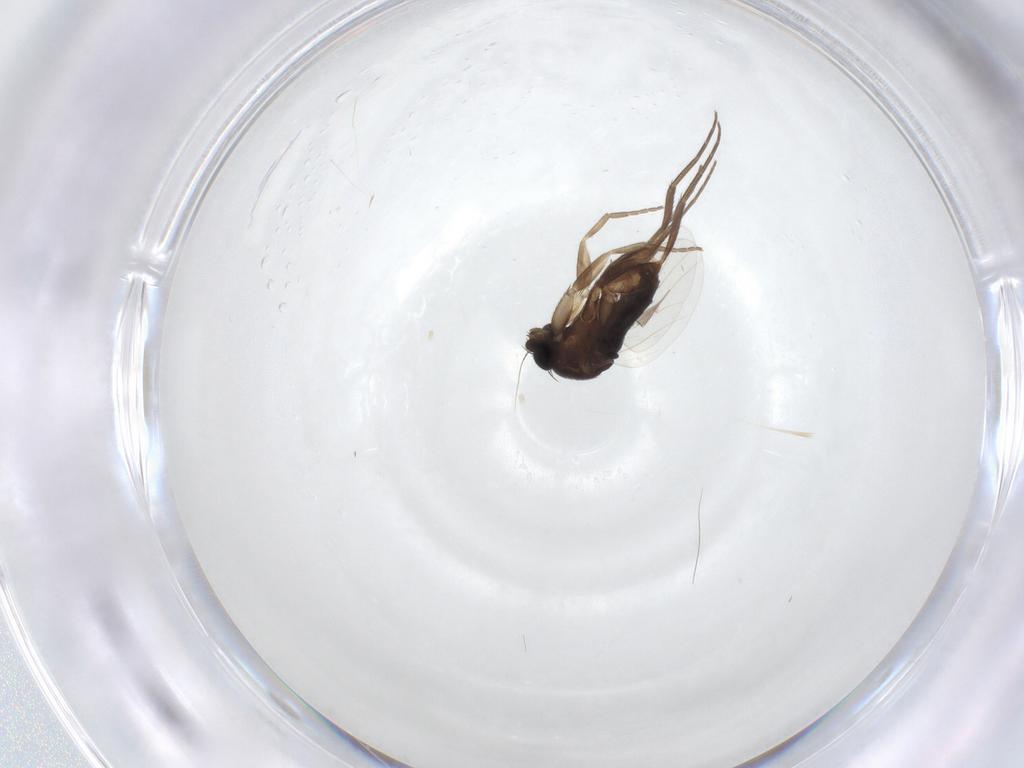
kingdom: Animalia
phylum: Arthropoda
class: Insecta
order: Diptera
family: Phoridae
